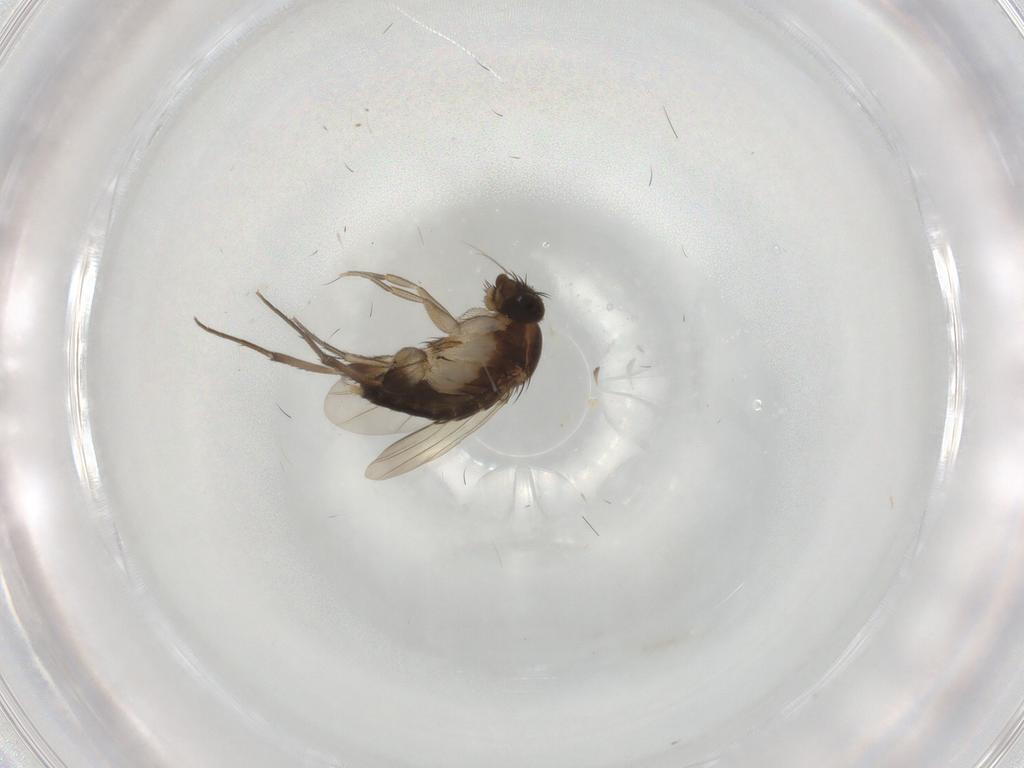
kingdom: Animalia
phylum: Arthropoda
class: Insecta
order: Diptera
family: Phoridae
